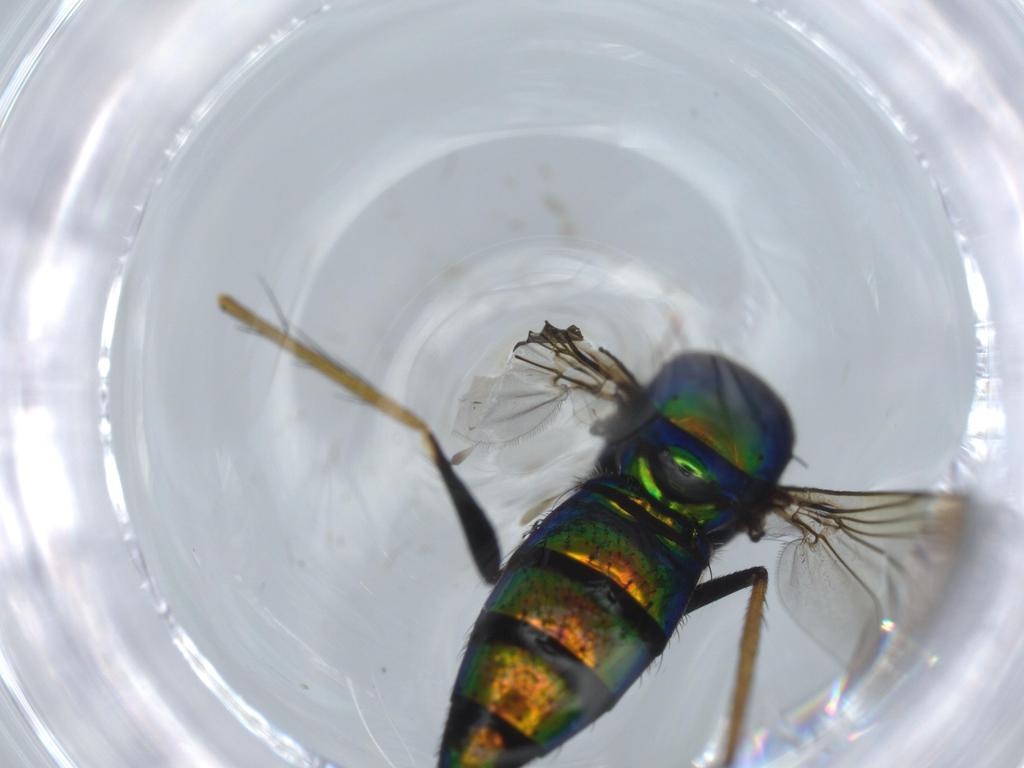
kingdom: Animalia
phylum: Arthropoda
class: Insecta
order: Diptera
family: Dolichopodidae
